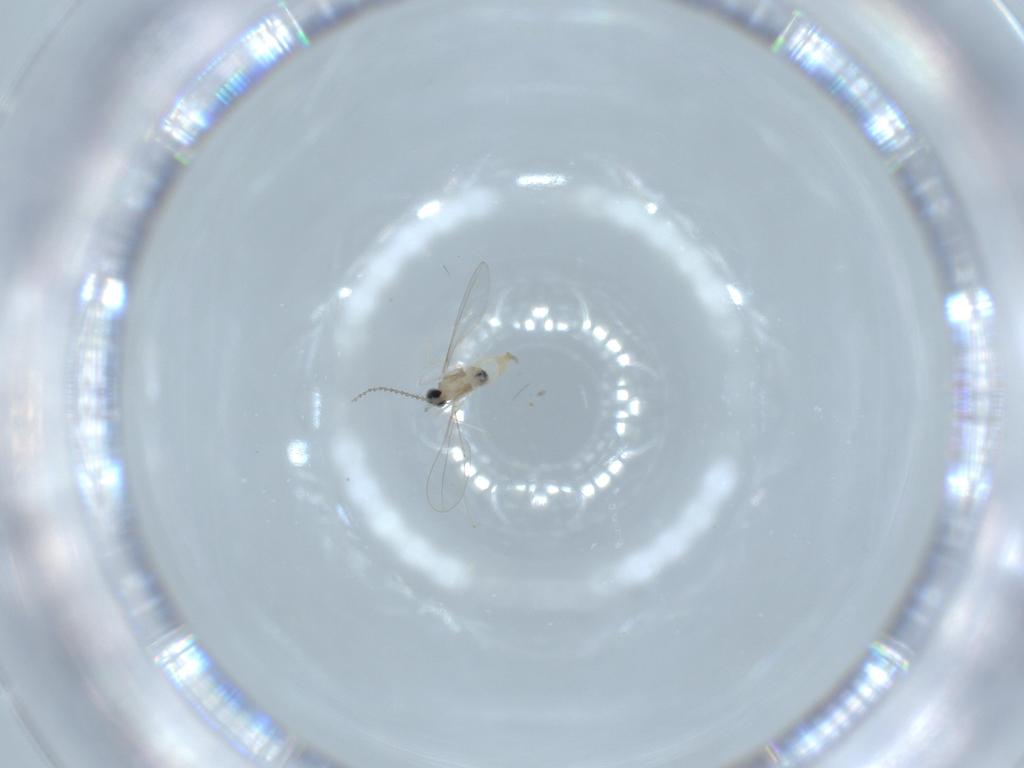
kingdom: Animalia
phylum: Arthropoda
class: Insecta
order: Diptera
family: Cecidomyiidae
